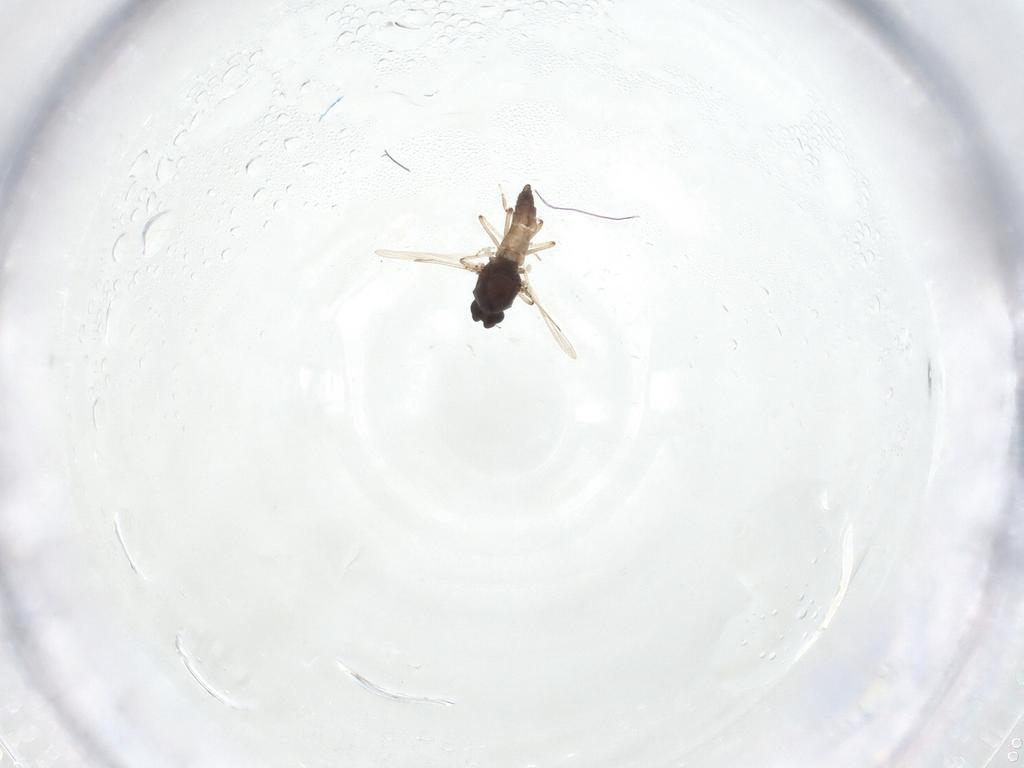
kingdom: Animalia
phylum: Arthropoda
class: Insecta
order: Diptera
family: Ceratopogonidae
